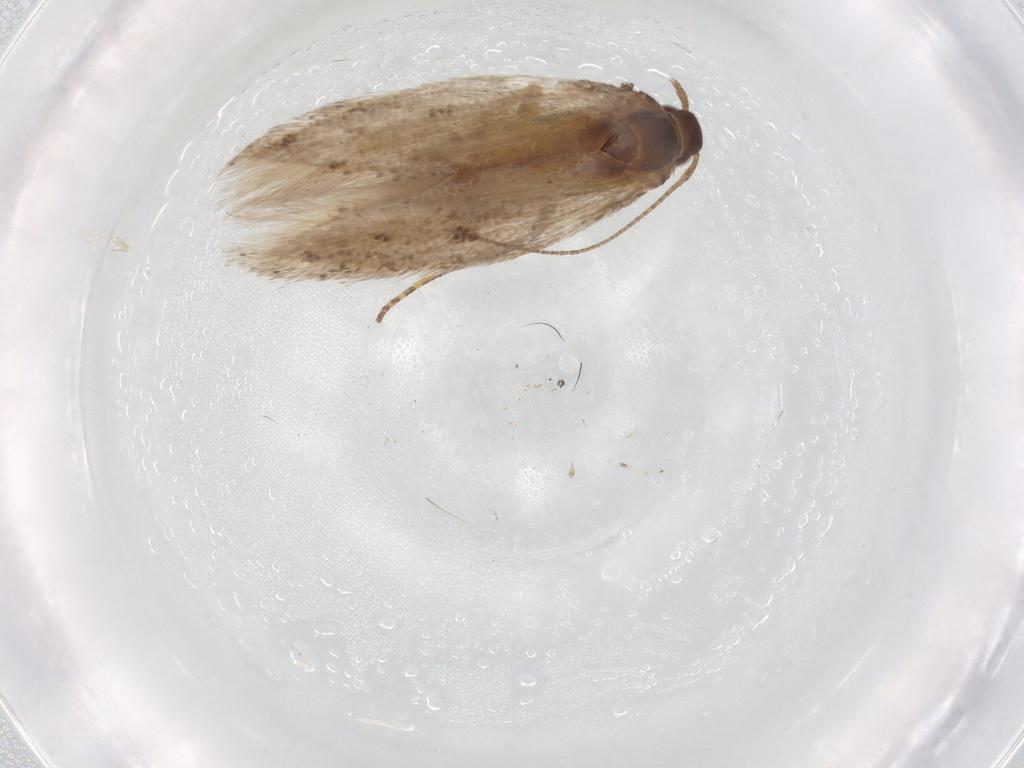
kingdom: Animalia
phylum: Arthropoda
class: Insecta
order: Lepidoptera
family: Gelechiidae
